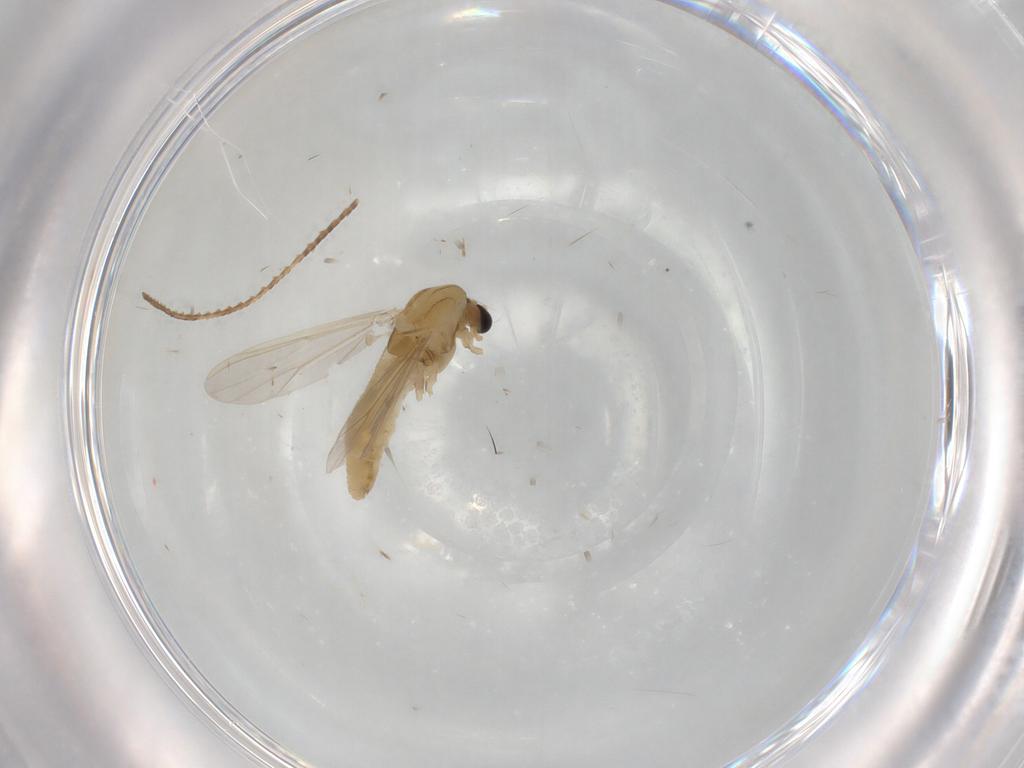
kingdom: Animalia
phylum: Arthropoda
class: Insecta
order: Diptera
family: Chironomidae
